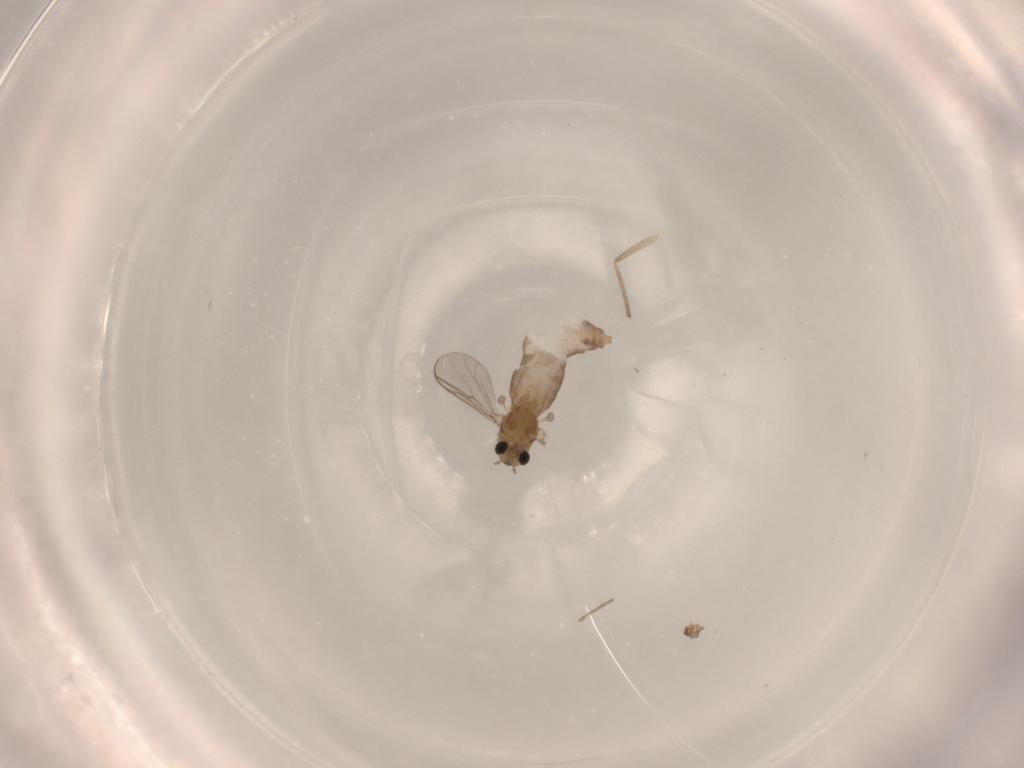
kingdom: Animalia
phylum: Arthropoda
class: Insecta
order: Diptera
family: Chironomidae
